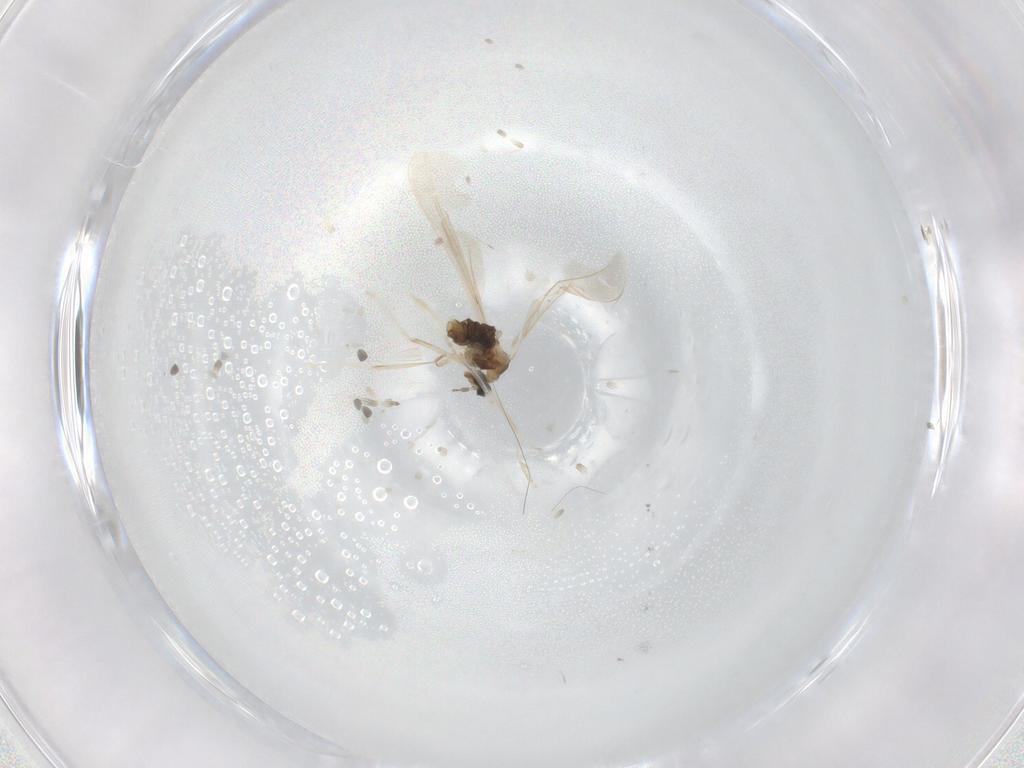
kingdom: Animalia
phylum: Arthropoda
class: Insecta
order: Diptera
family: Cecidomyiidae
